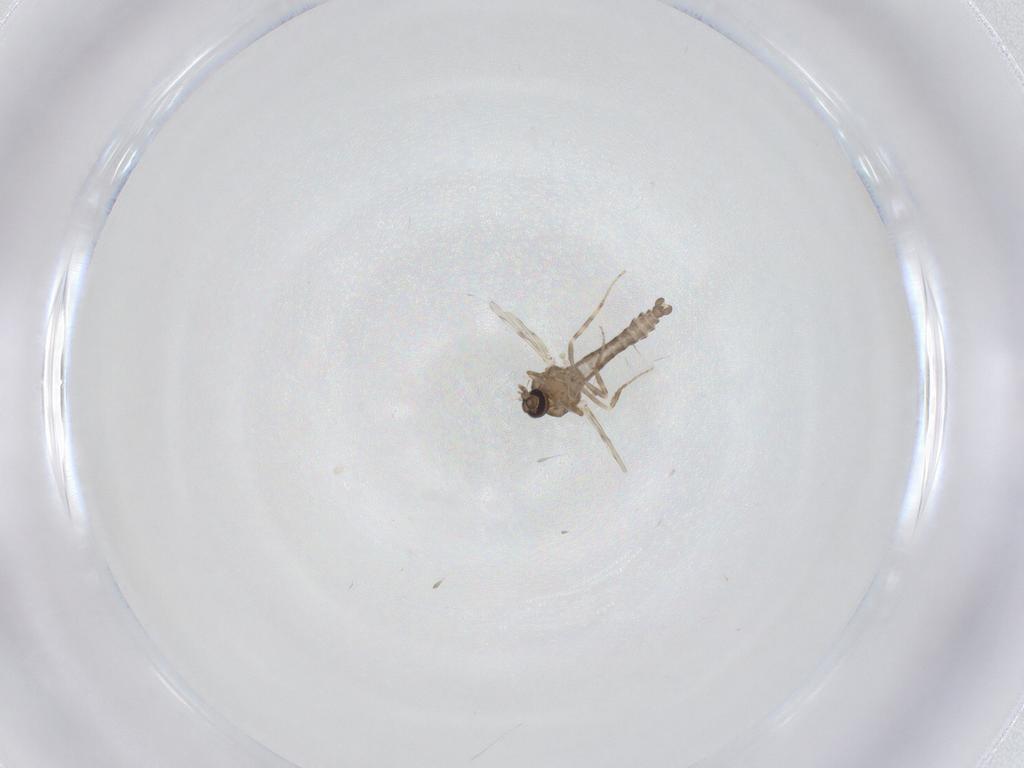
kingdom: Animalia
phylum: Arthropoda
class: Insecta
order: Diptera
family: Ceratopogonidae
